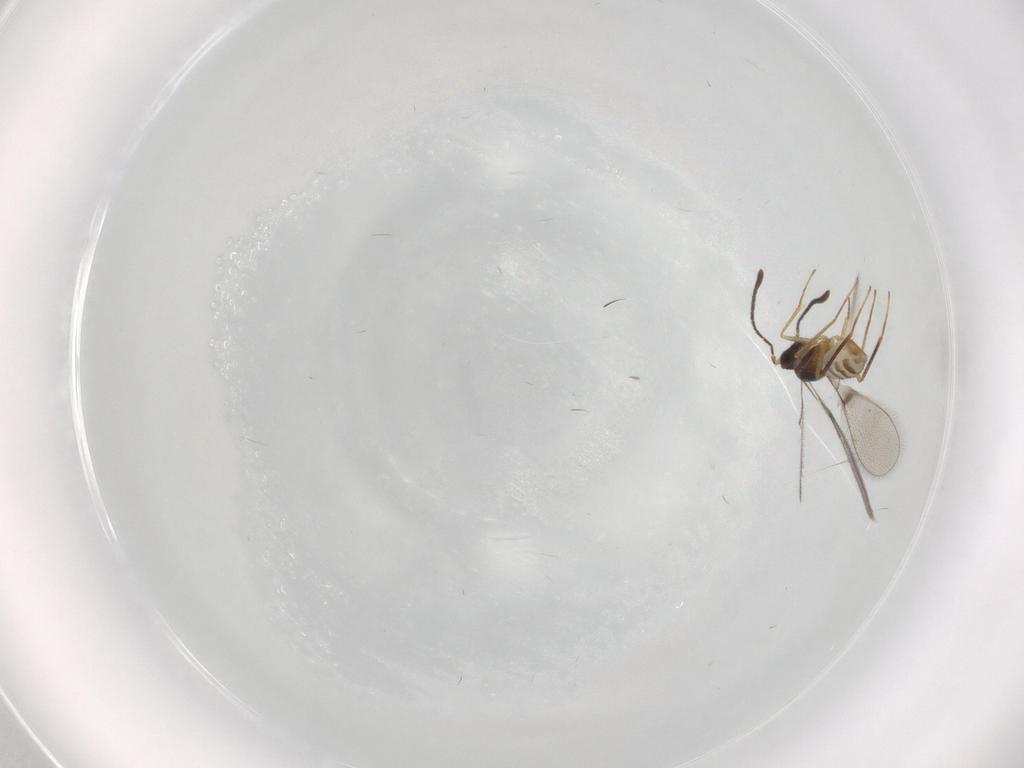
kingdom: Animalia
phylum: Arthropoda
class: Insecta
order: Hymenoptera
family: Mymaridae
